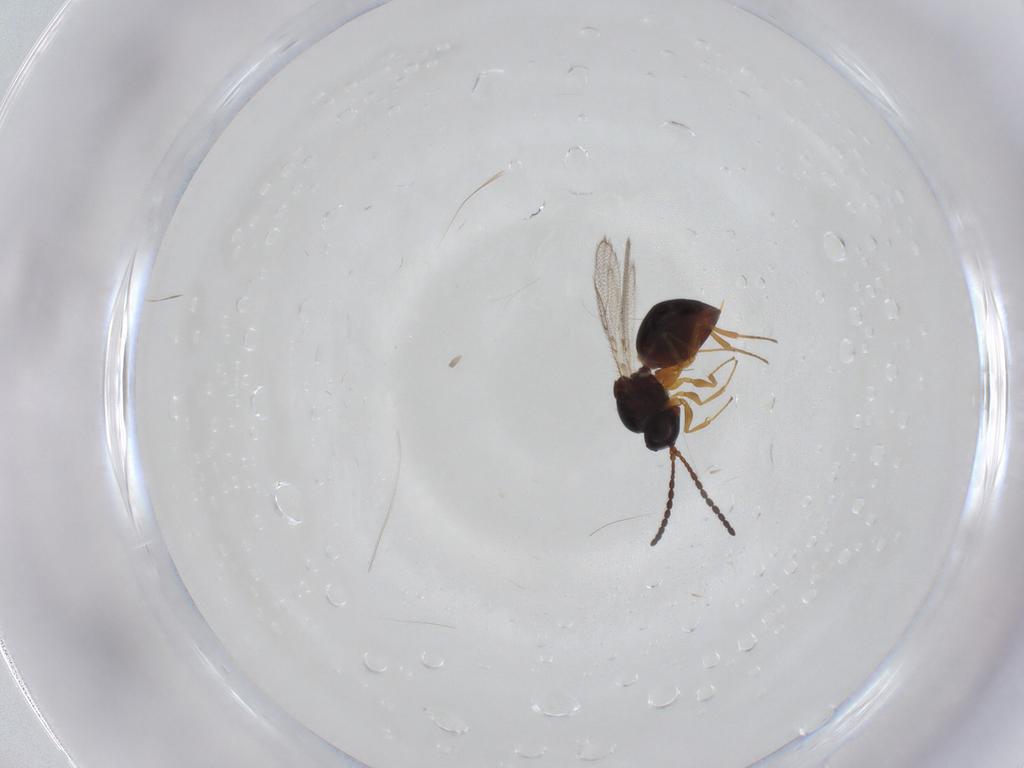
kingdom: Animalia
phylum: Arthropoda
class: Insecta
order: Hymenoptera
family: Figitidae
